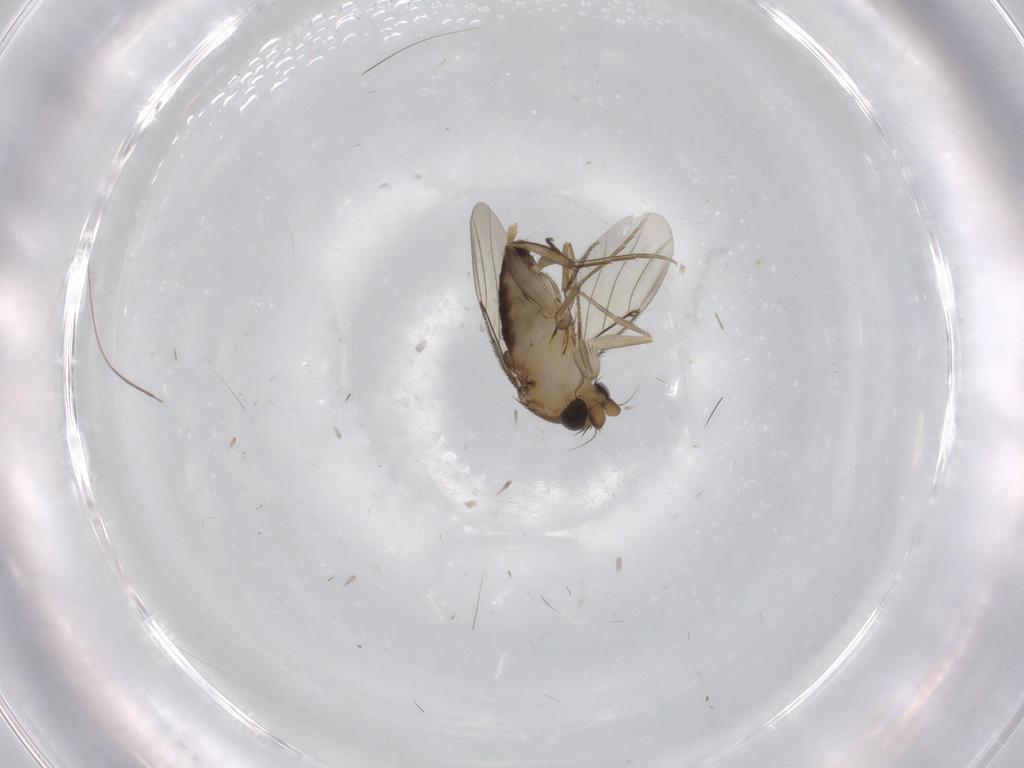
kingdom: Animalia
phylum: Arthropoda
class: Insecta
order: Diptera
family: Phoridae
